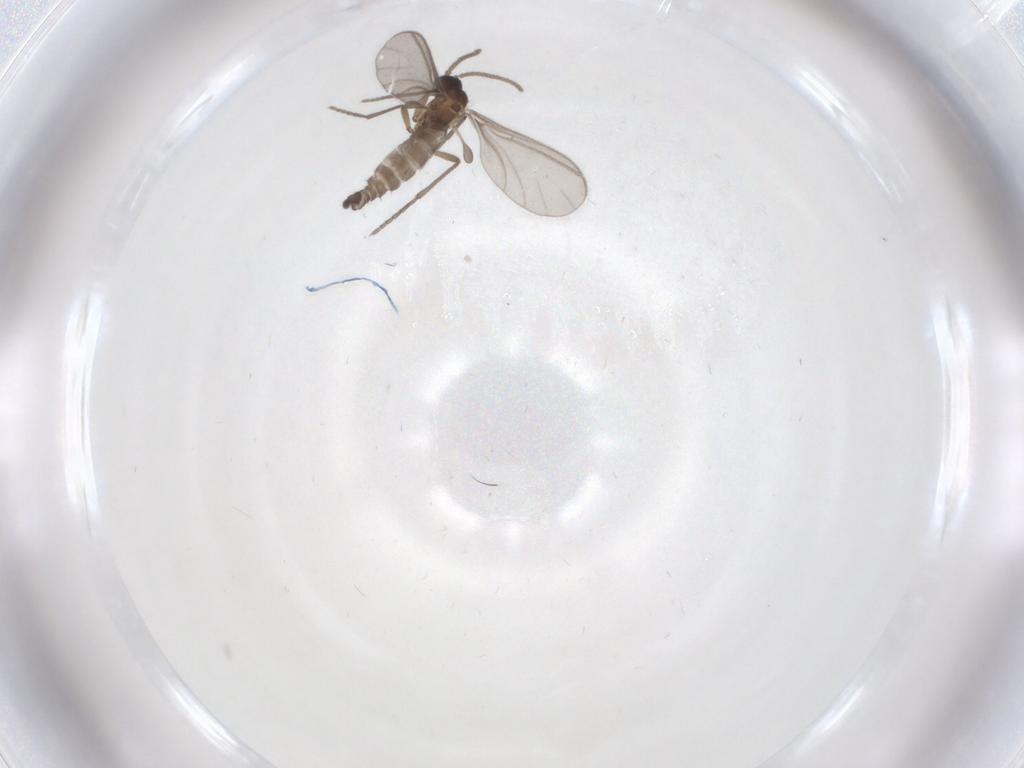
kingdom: Animalia
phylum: Arthropoda
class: Insecta
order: Diptera
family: Sciaridae
